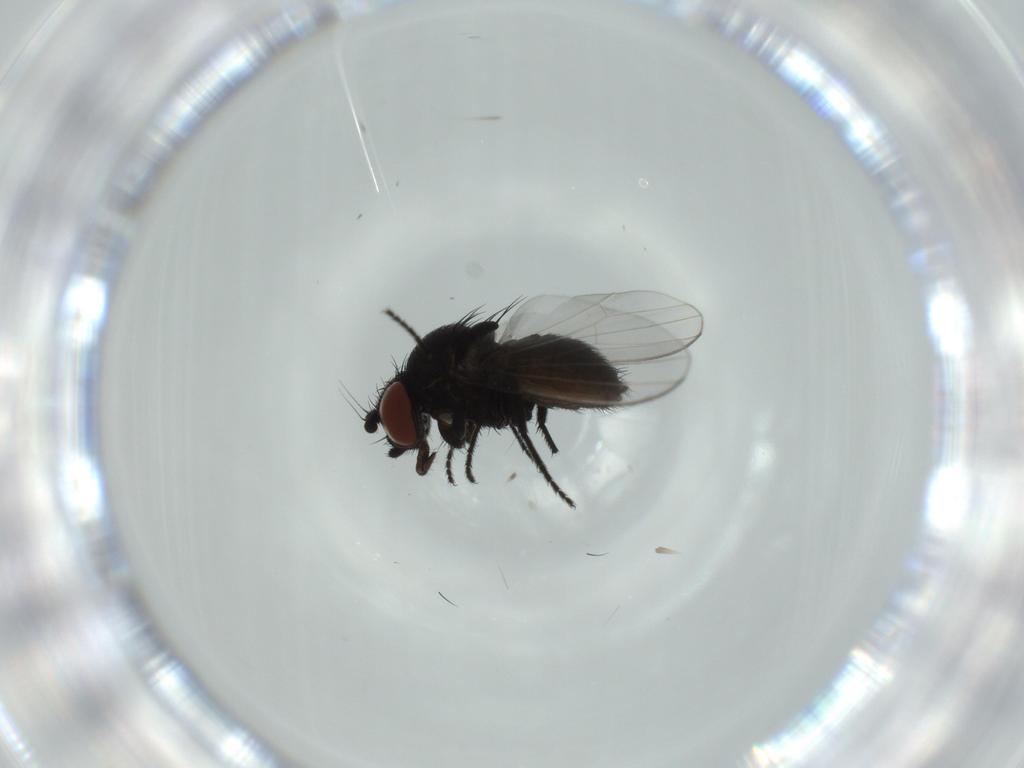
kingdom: Animalia
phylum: Arthropoda
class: Insecta
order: Diptera
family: Milichiidae
